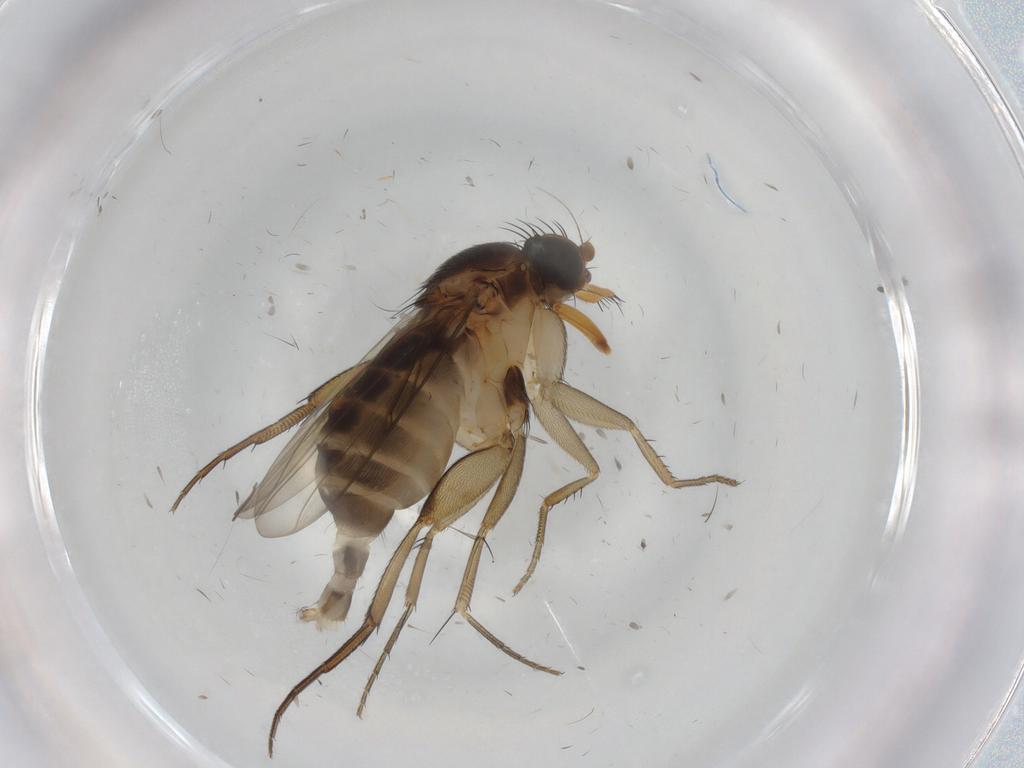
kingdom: Animalia
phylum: Arthropoda
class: Insecta
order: Diptera
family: Phoridae
